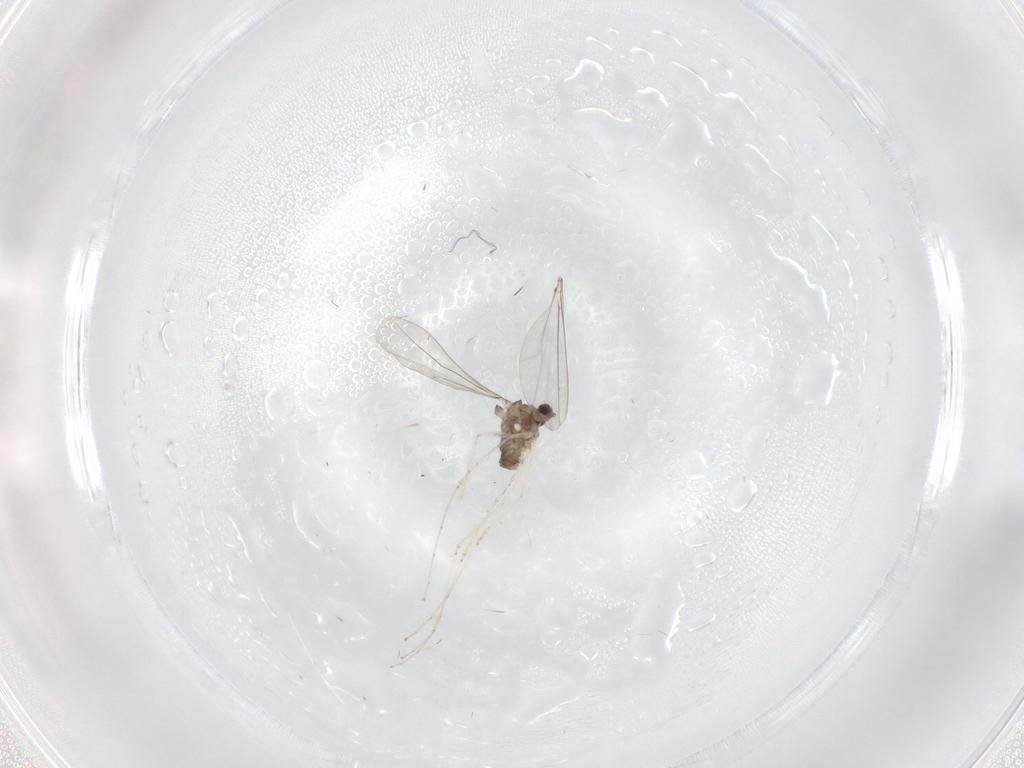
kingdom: Animalia
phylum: Arthropoda
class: Insecta
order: Diptera
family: Cecidomyiidae
